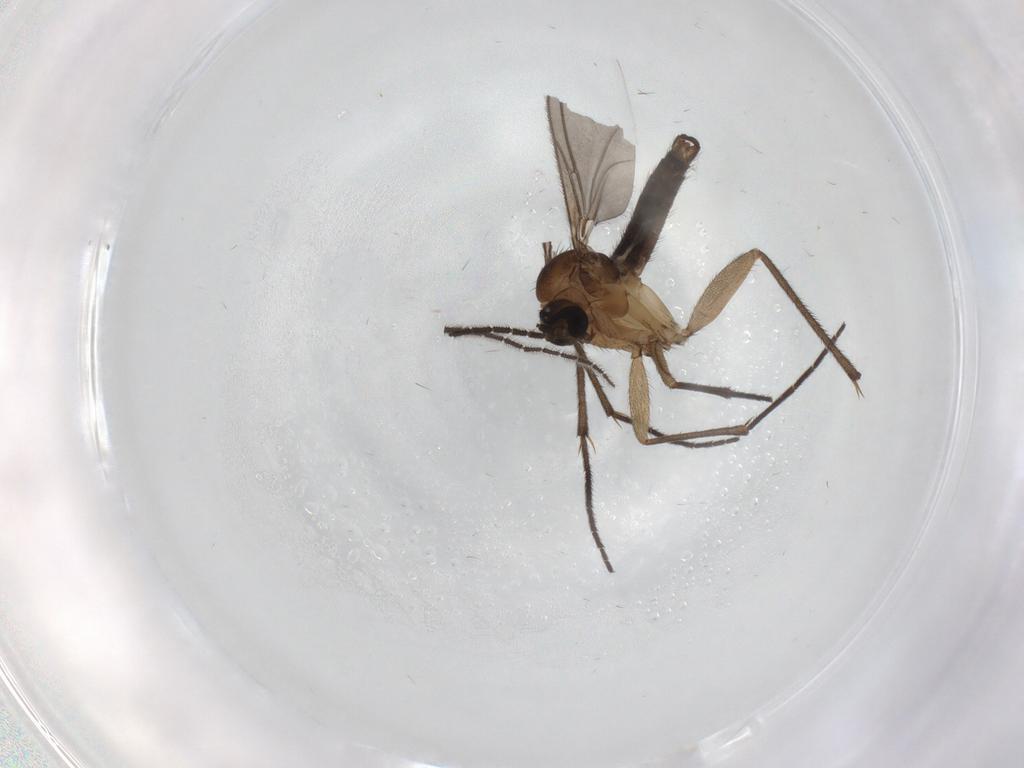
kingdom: Animalia
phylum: Arthropoda
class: Insecta
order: Diptera
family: Sciaridae
